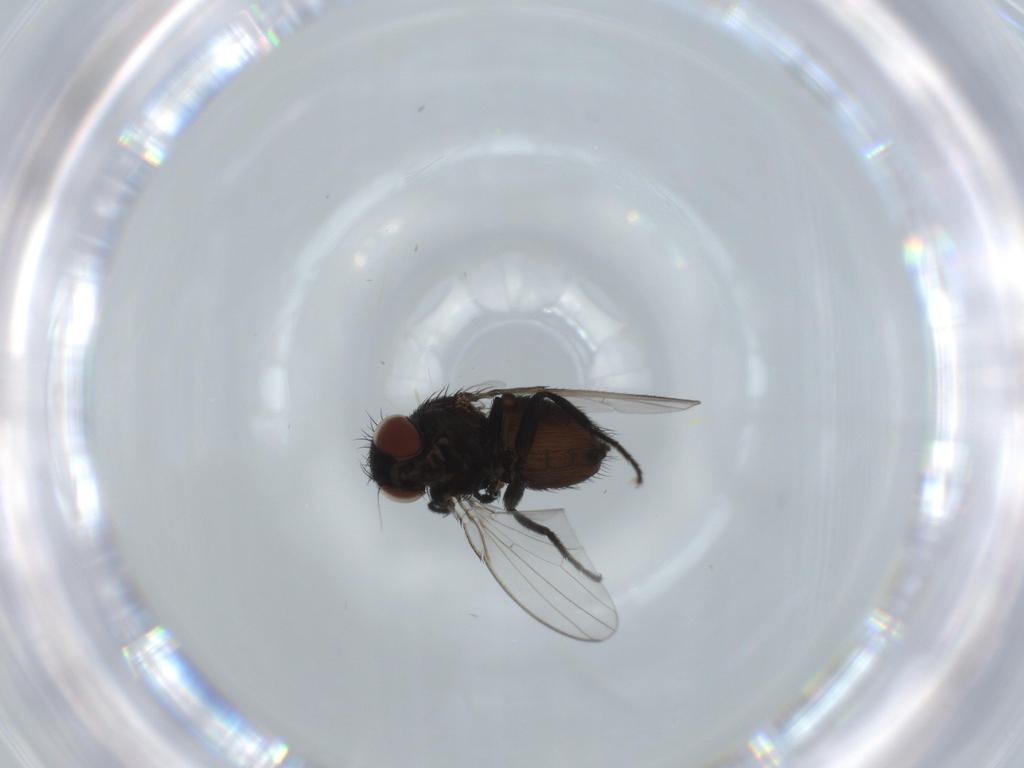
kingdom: Animalia
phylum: Arthropoda
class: Insecta
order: Diptera
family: Milichiidae
